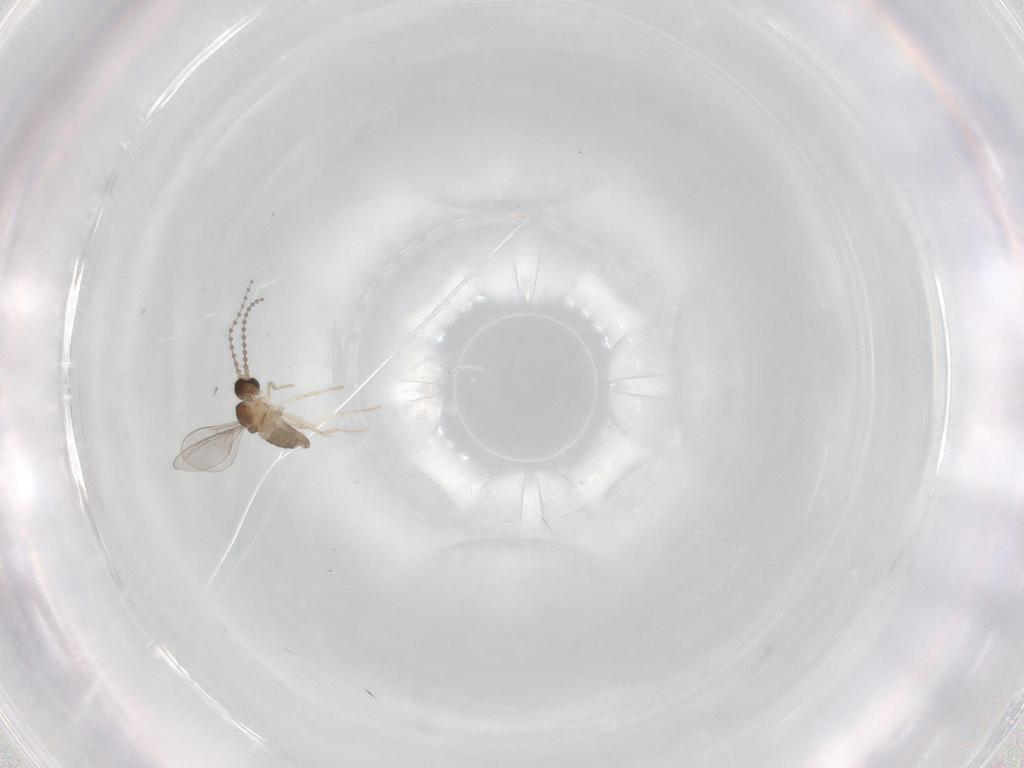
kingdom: Animalia
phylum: Arthropoda
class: Insecta
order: Diptera
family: Cecidomyiidae
